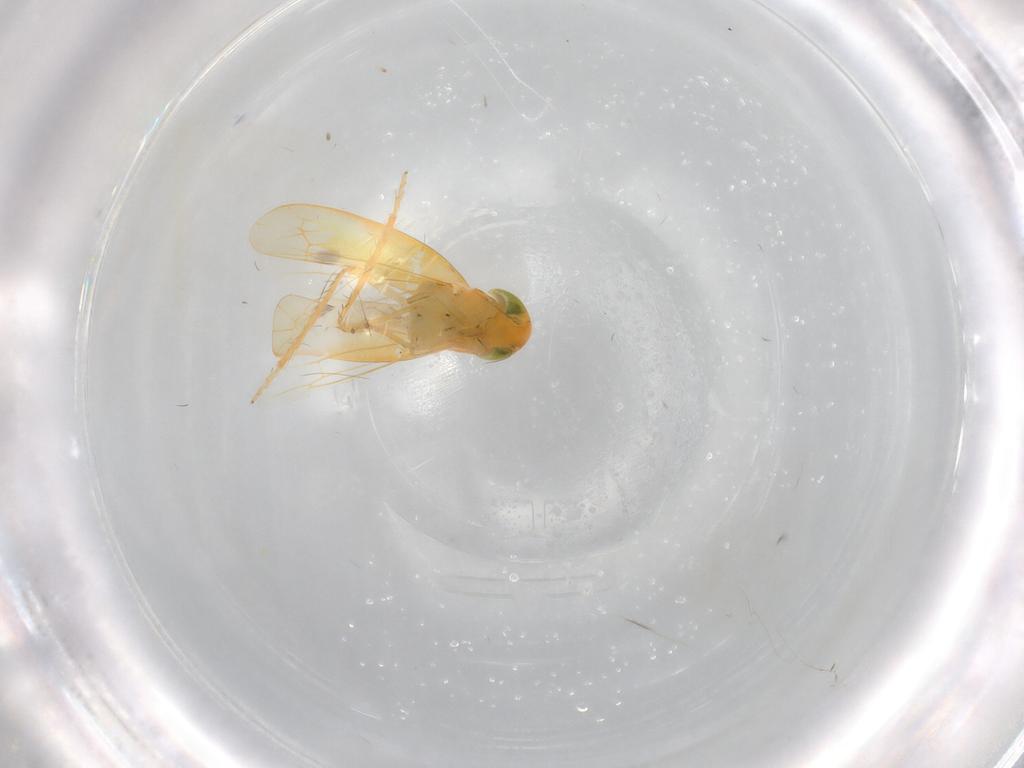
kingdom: Animalia
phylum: Arthropoda
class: Insecta
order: Hemiptera
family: Cicadellidae
